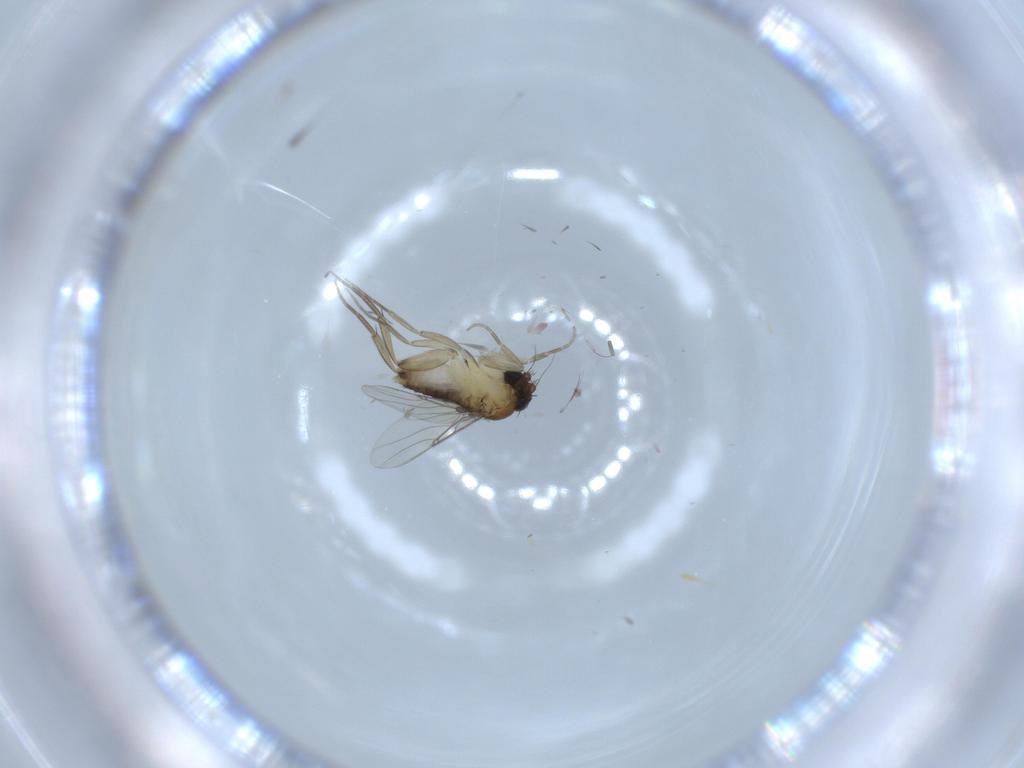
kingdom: Animalia
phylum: Arthropoda
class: Insecta
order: Diptera
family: Phoridae
